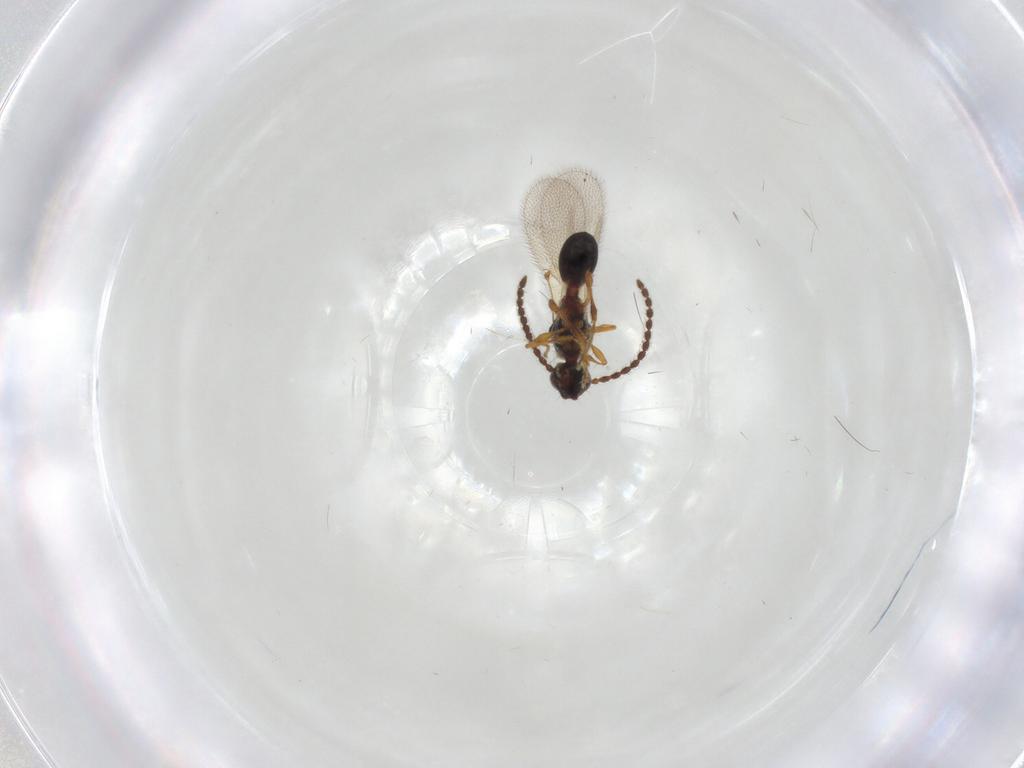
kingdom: Animalia
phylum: Arthropoda
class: Insecta
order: Hymenoptera
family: Diapriidae
